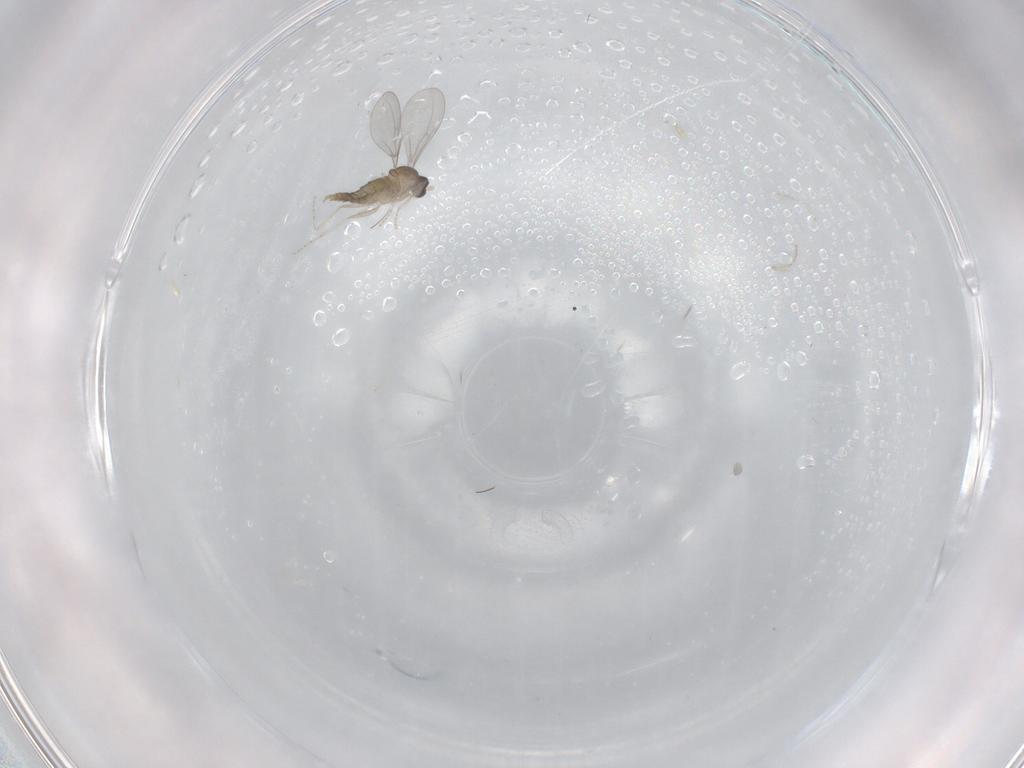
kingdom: Animalia
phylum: Arthropoda
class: Insecta
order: Diptera
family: Cecidomyiidae
